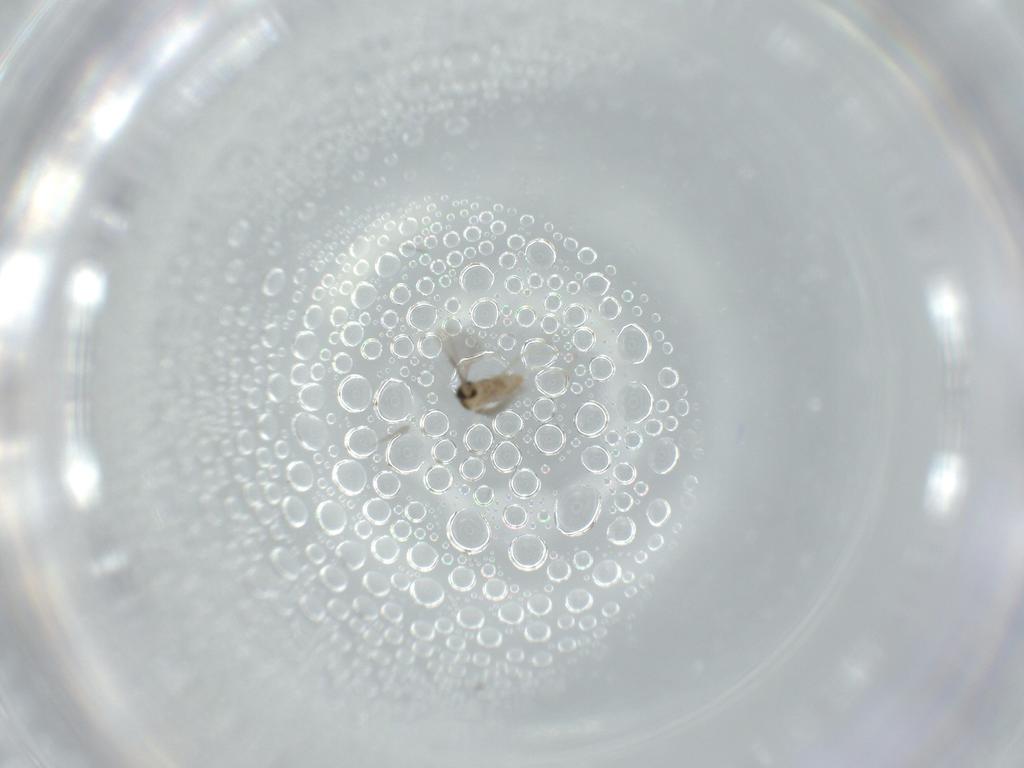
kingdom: Animalia
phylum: Arthropoda
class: Insecta
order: Diptera
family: Cecidomyiidae
